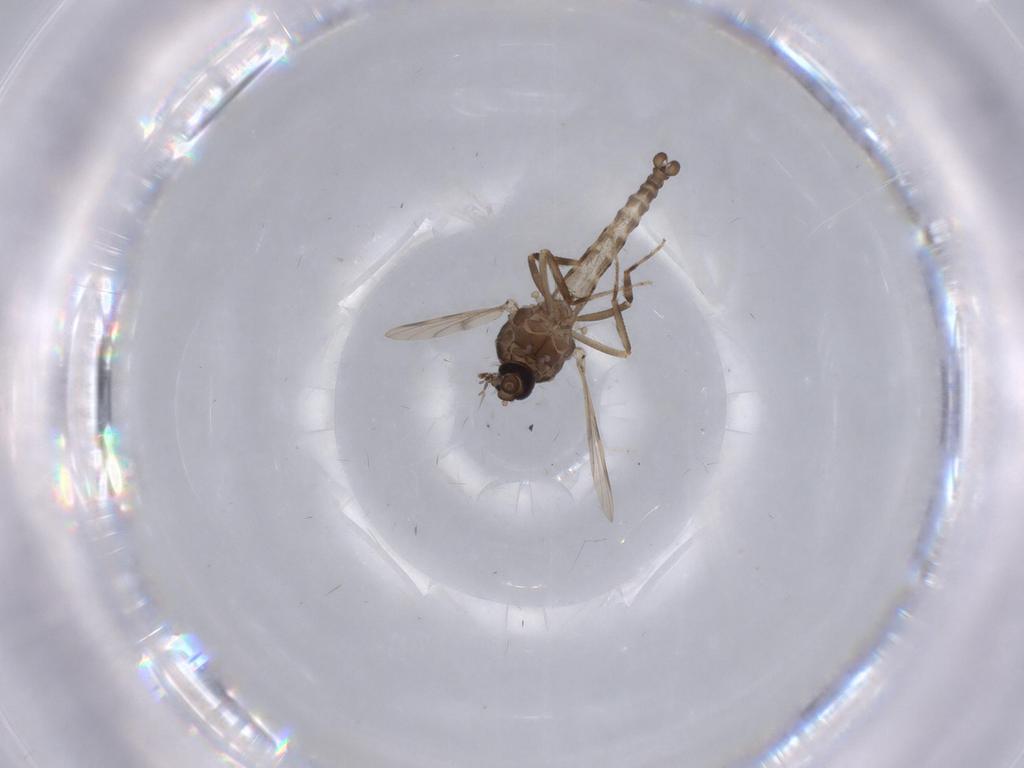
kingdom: Animalia
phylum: Arthropoda
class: Insecta
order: Diptera
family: Ceratopogonidae
